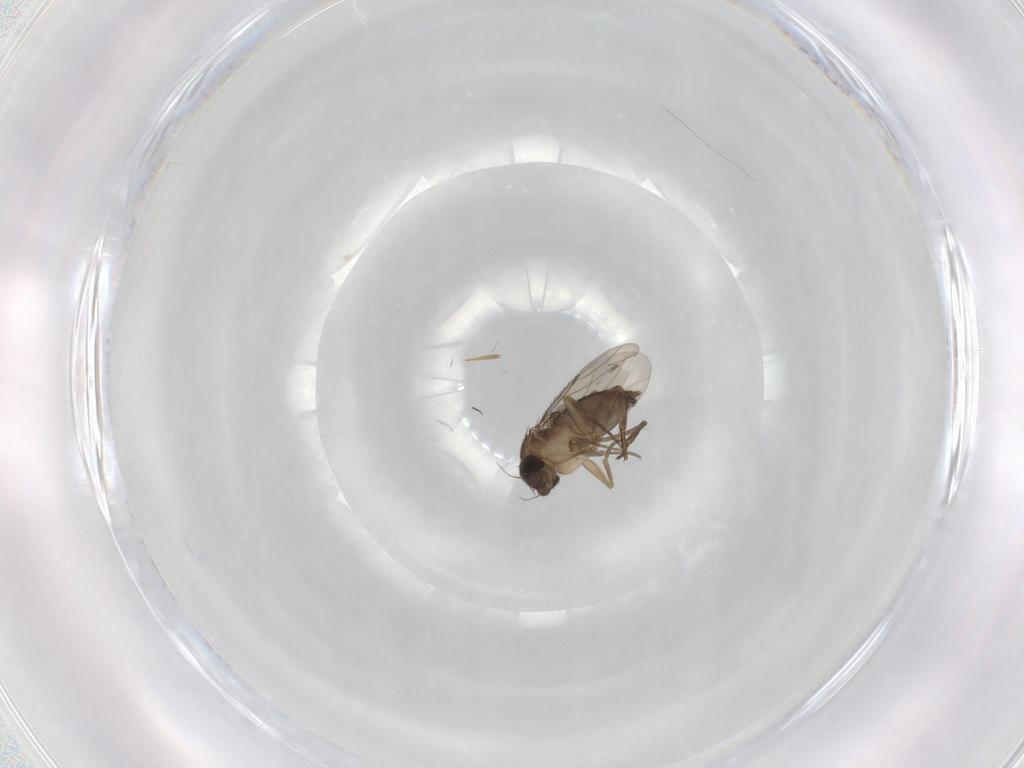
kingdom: Animalia
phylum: Arthropoda
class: Insecta
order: Diptera
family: Phoridae
